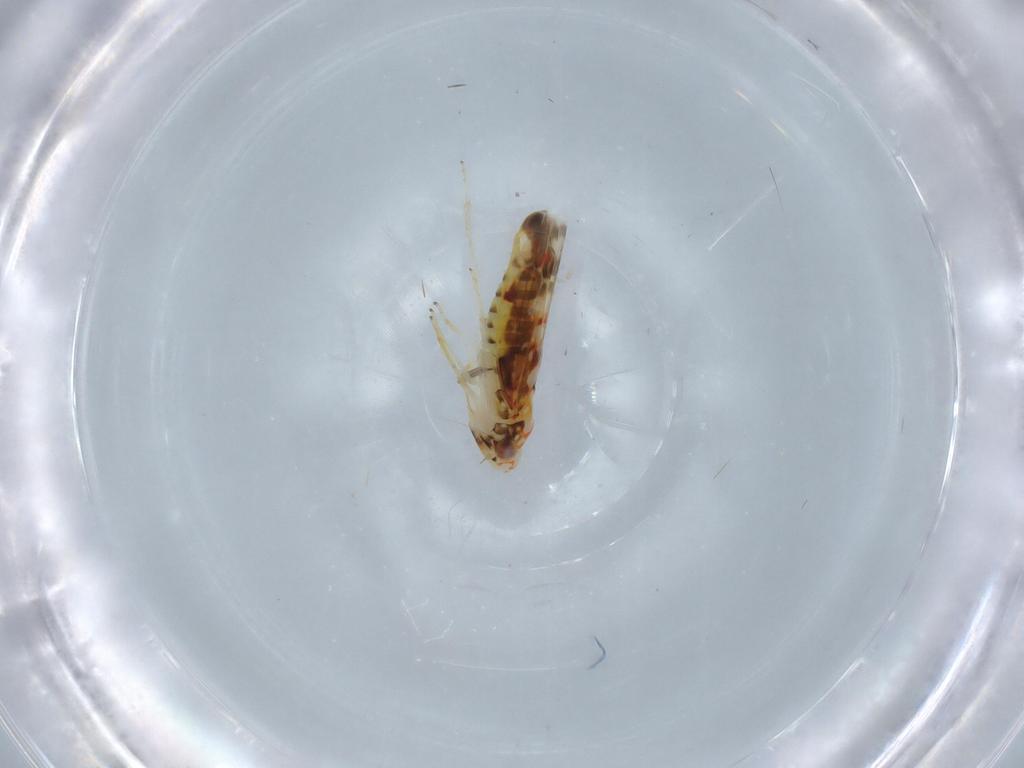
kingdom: Animalia
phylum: Arthropoda
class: Insecta
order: Hemiptera
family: Cicadellidae
